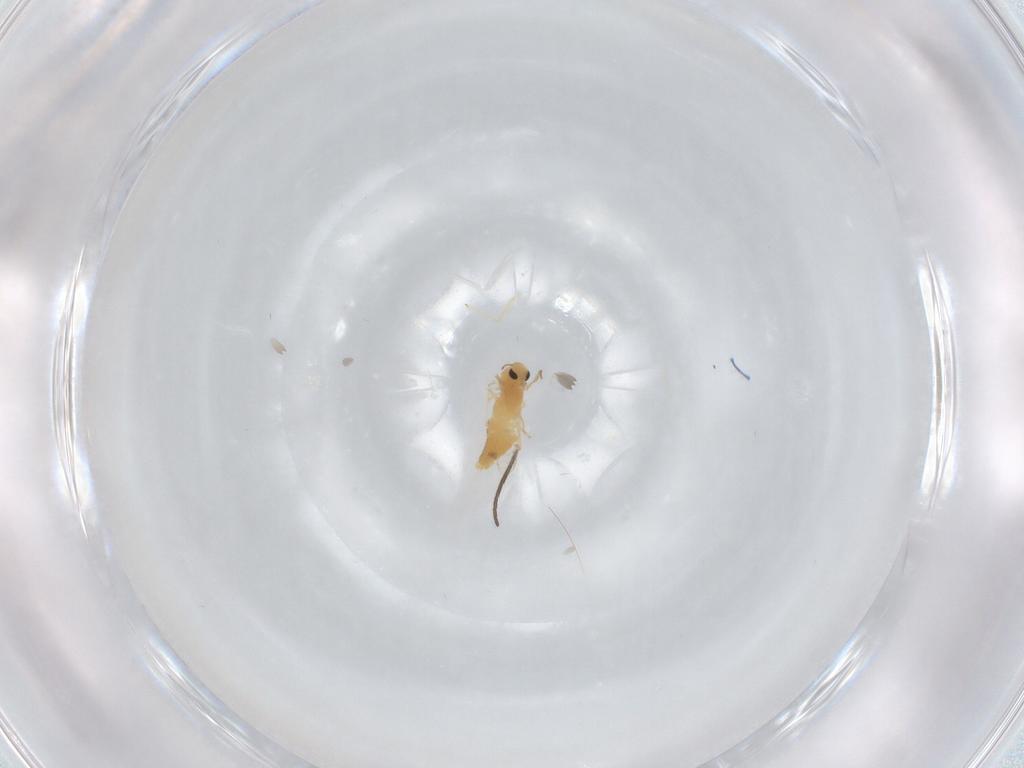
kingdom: Animalia
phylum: Arthropoda
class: Insecta
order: Diptera
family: Chironomidae
